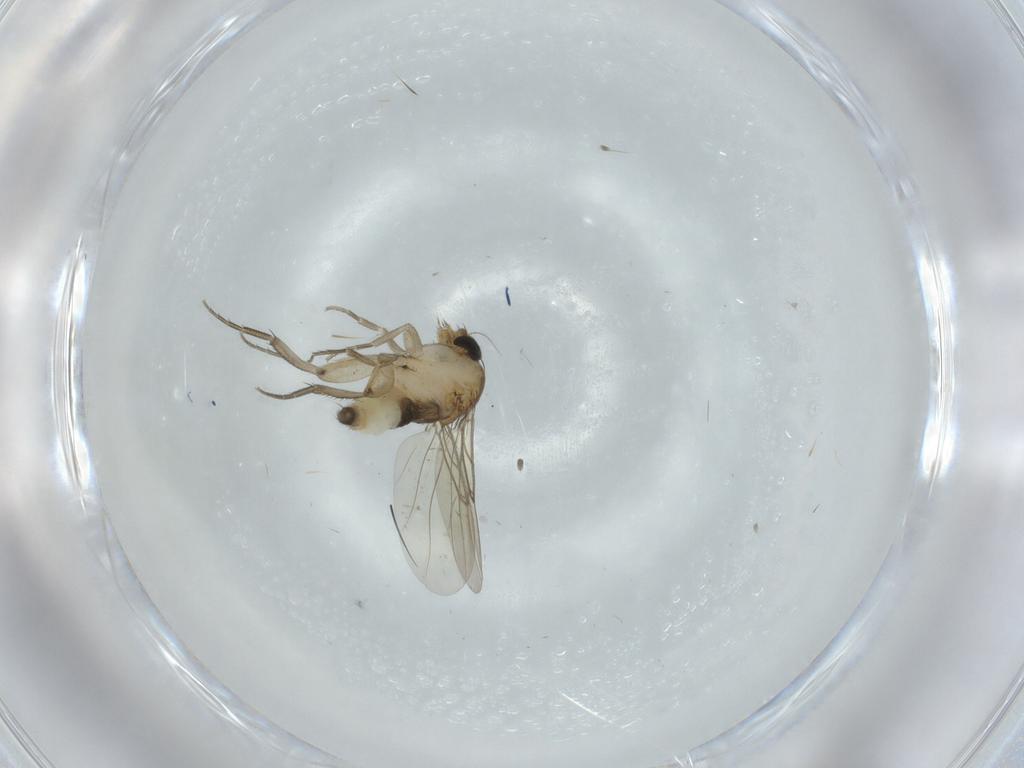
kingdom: Animalia
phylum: Arthropoda
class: Insecta
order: Diptera
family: Phoridae
